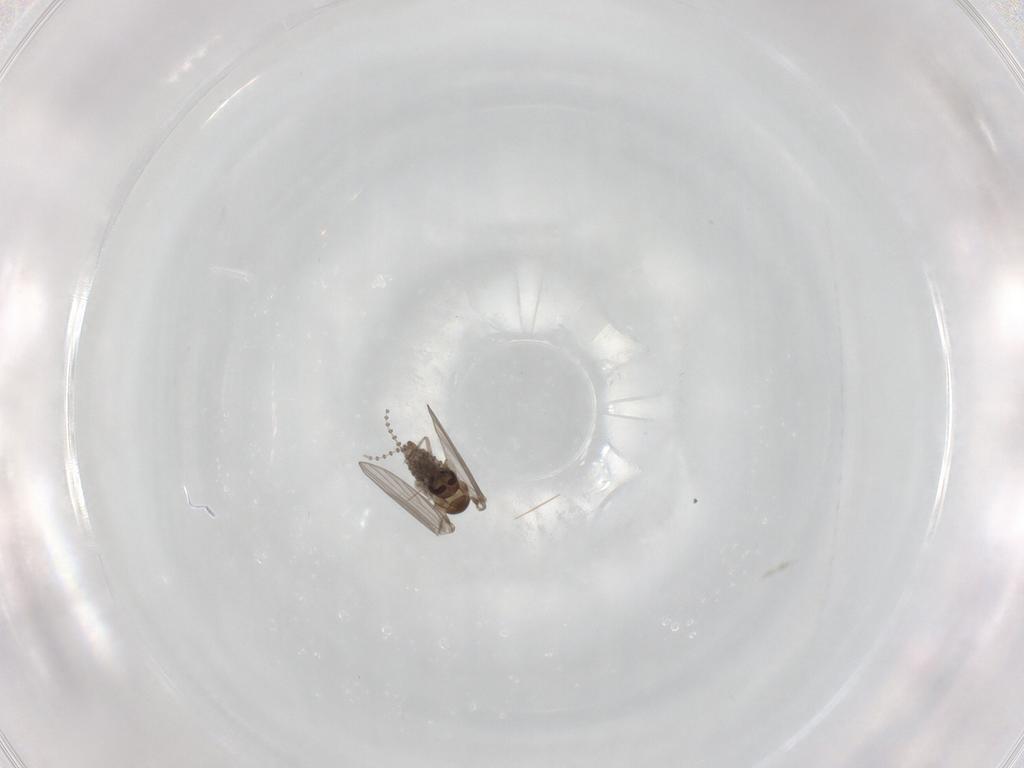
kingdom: Animalia
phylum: Arthropoda
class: Insecta
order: Diptera
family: Psychodidae
